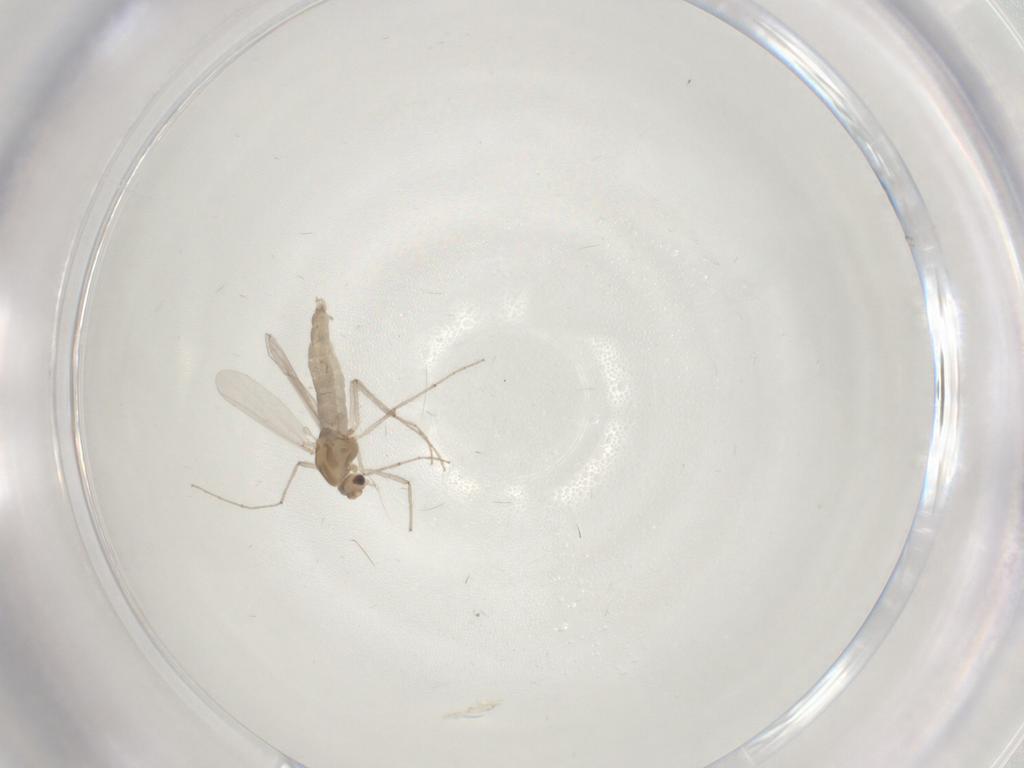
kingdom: Animalia
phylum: Arthropoda
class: Insecta
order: Diptera
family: Chironomidae
